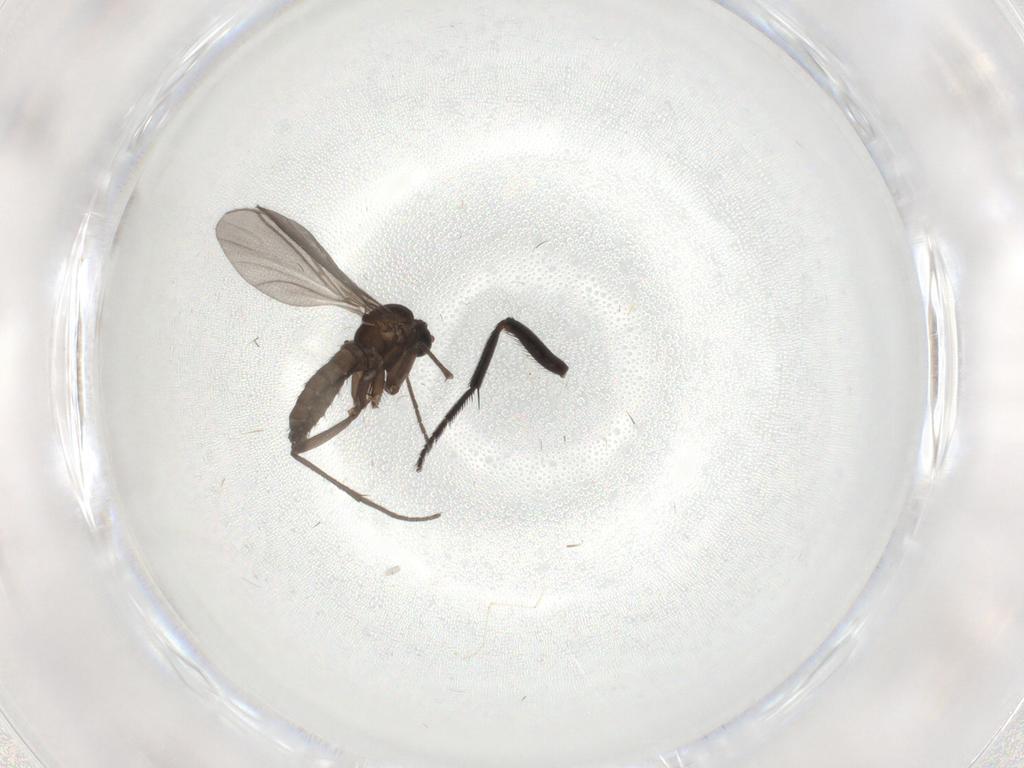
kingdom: Animalia
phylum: Arthropoda
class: Insecta
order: Diptera
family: Milichiidae
